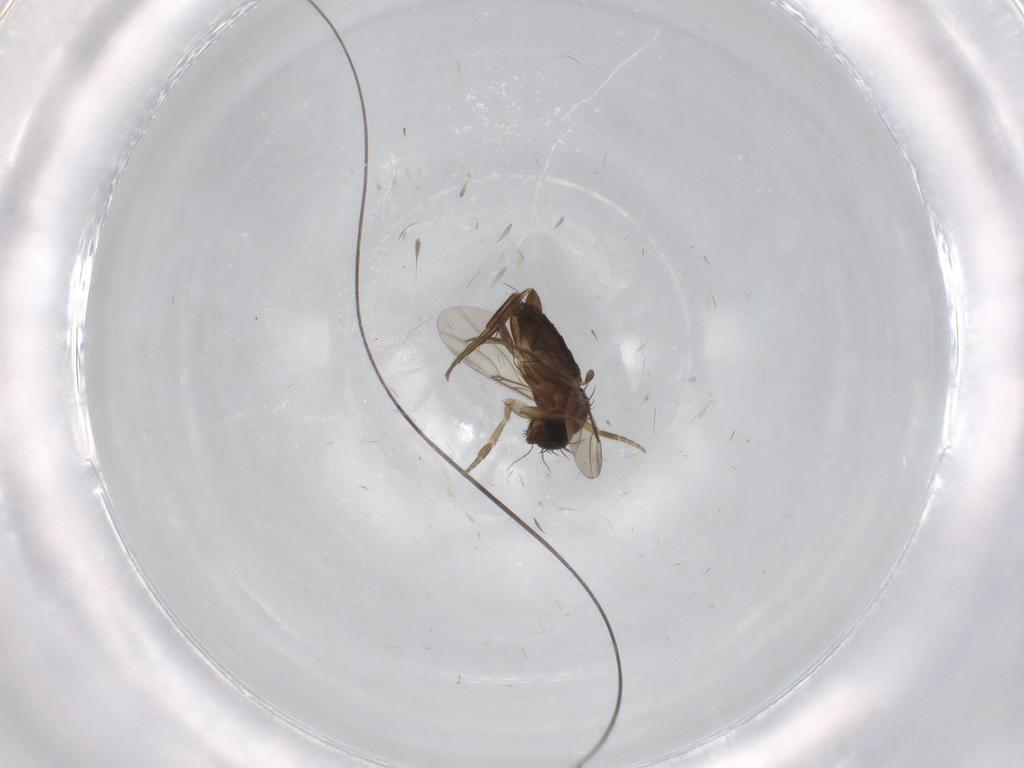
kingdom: Animalia
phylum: Arthropoda
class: Insecta
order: Diptera
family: Phoridae
